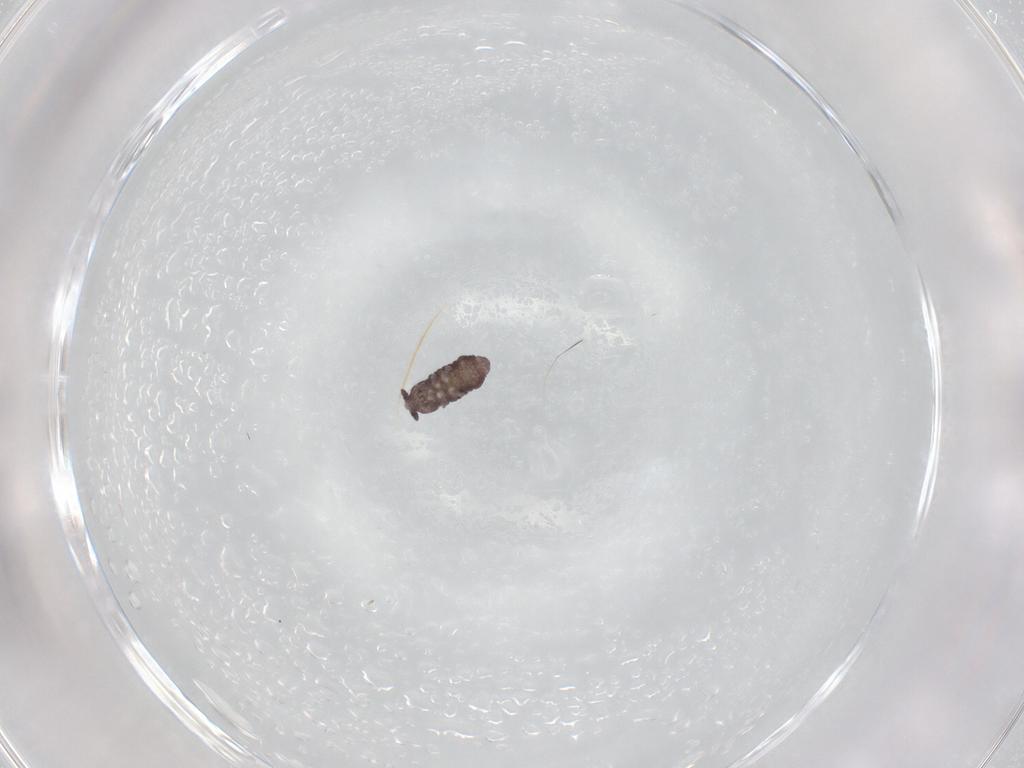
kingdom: Animalia
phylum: Arthropoda
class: Collembola
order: Poduromorpha
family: Hypogastruridae
